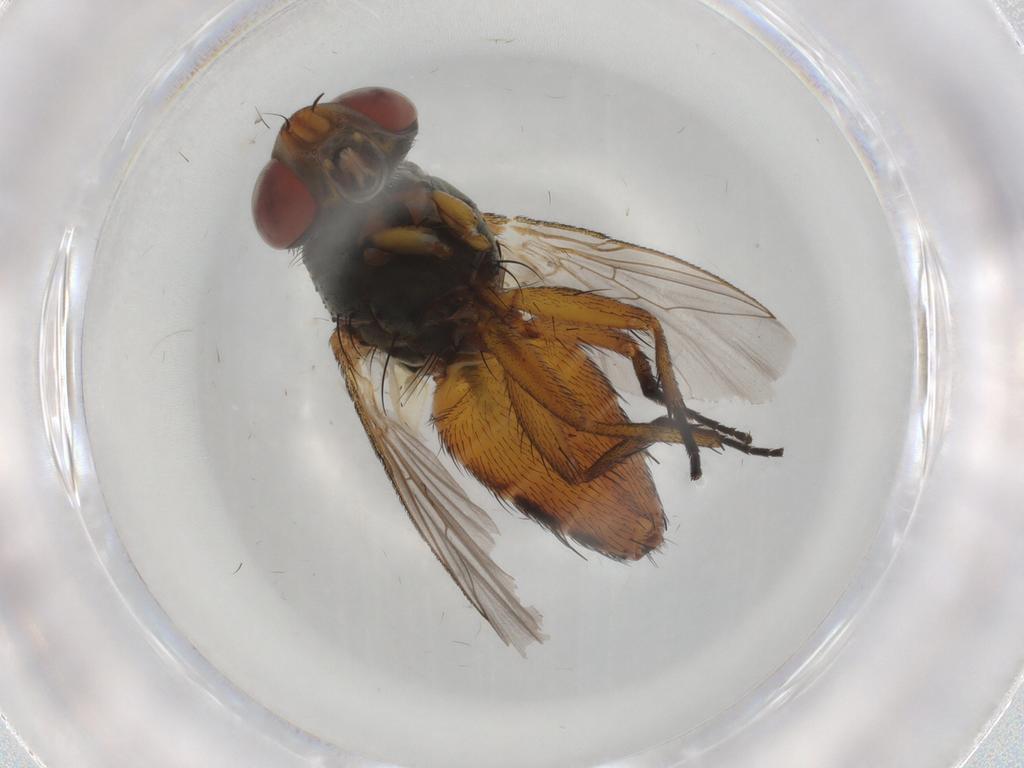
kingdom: Animalia
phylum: Arthropoda
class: Insecta
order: Diptera
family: Sarcophagidae
